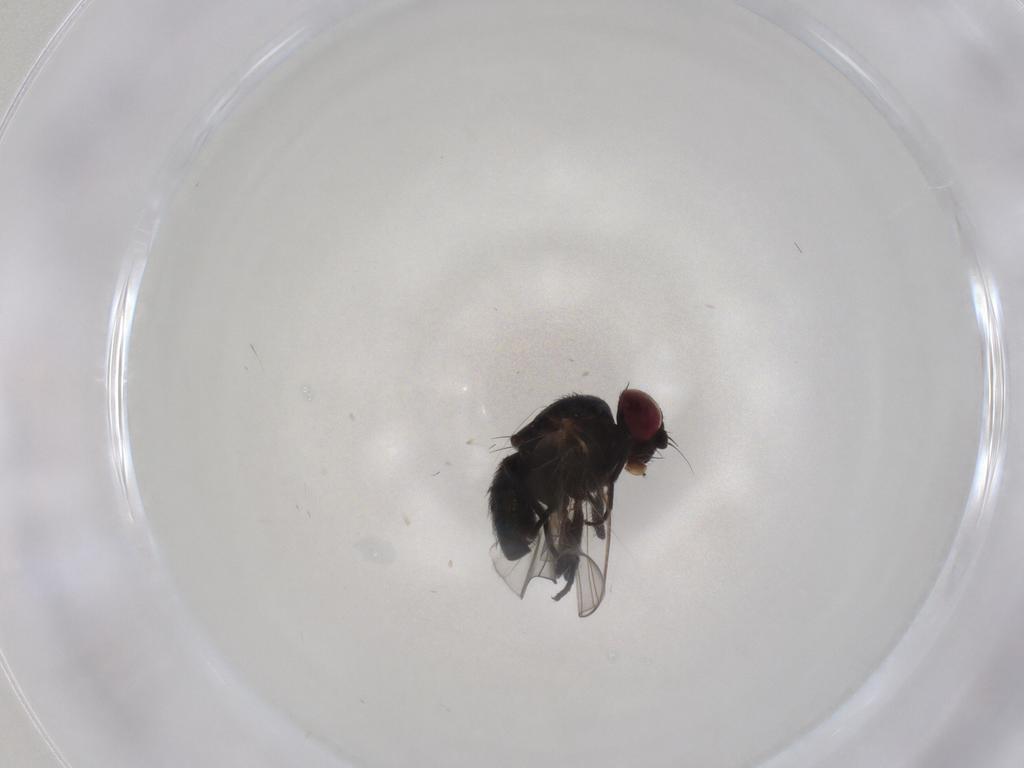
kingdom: Animalia
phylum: Arthropoda
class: Insecta
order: Diptera
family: Agromyzidae
